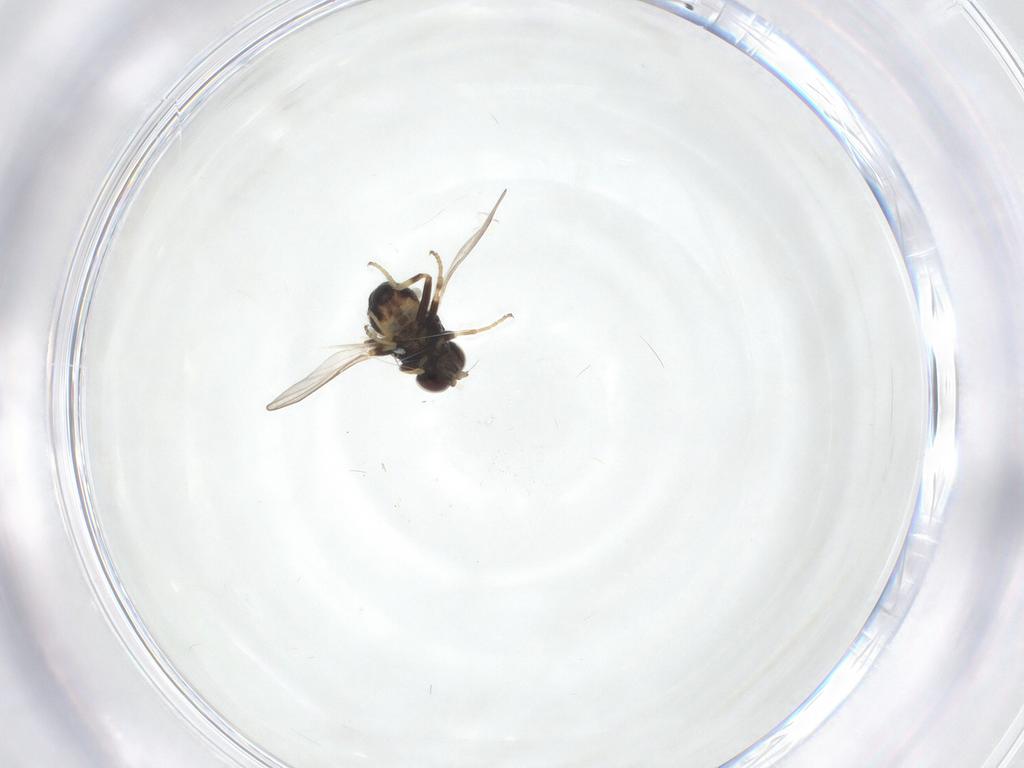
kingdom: Animalia
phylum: Arthropoda
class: Insecta
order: Diptera
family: Chloropidae
